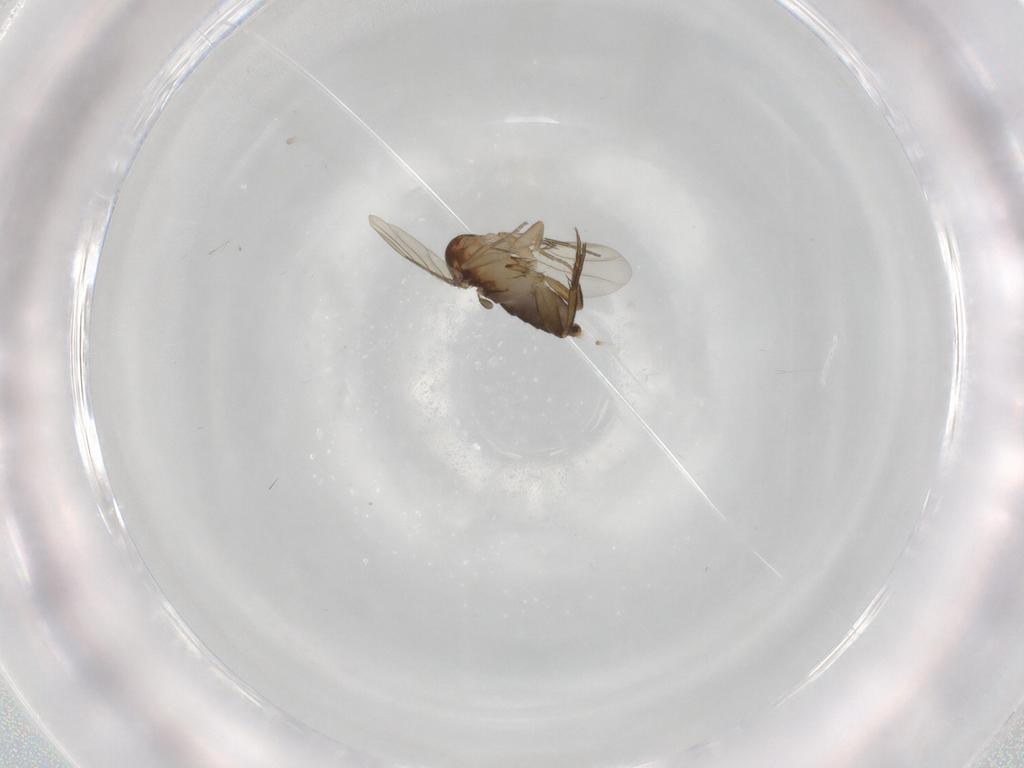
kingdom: Animalia
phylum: Arthropoda
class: Insecta
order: Diptera
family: Phoridae
